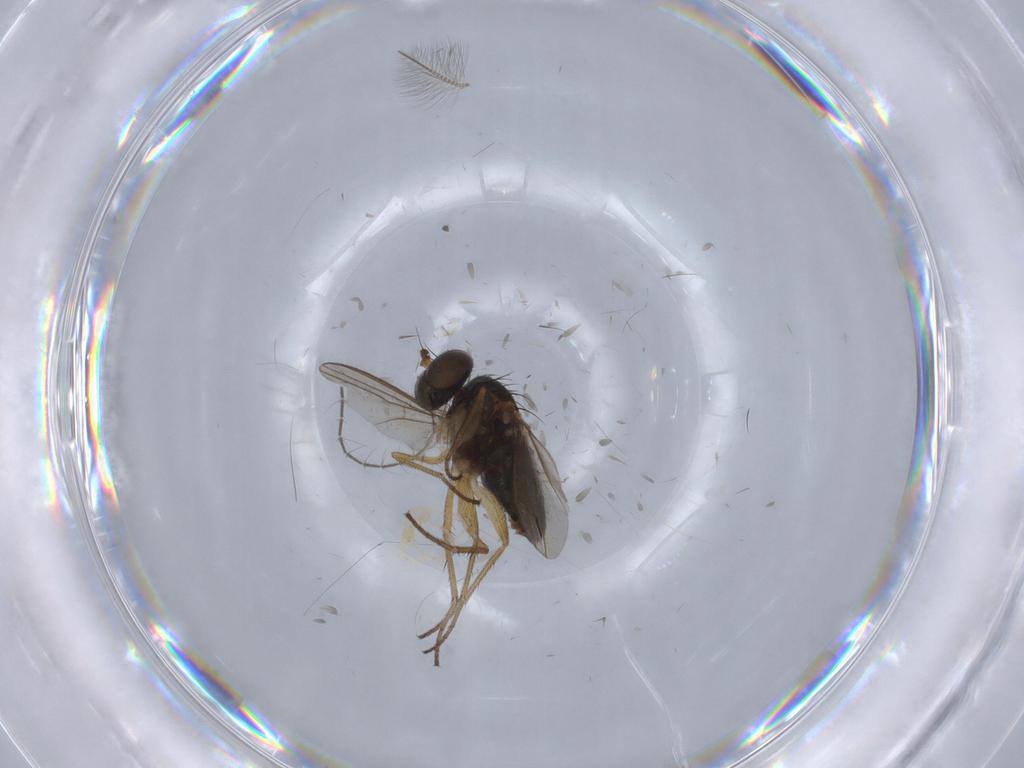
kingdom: Animalia
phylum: Arthropoda
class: Insecta
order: Diptera
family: Dolichopodidae
